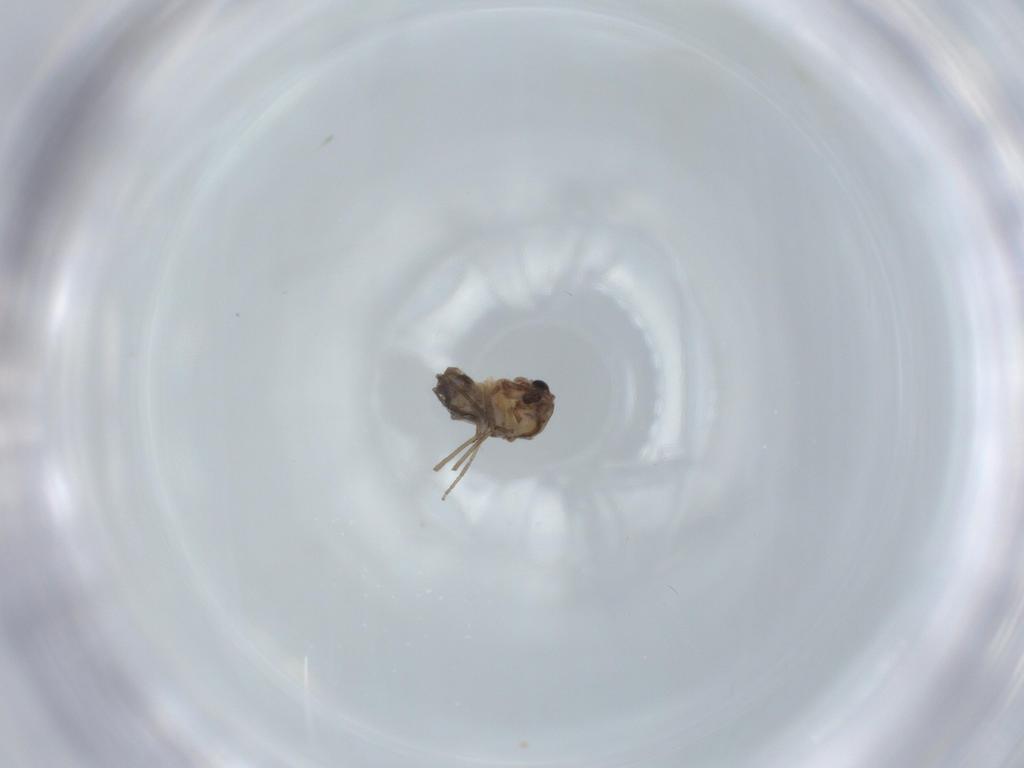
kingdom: Animalia
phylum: Arthropoda
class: Insecta
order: Diptera
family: Chironomidae
